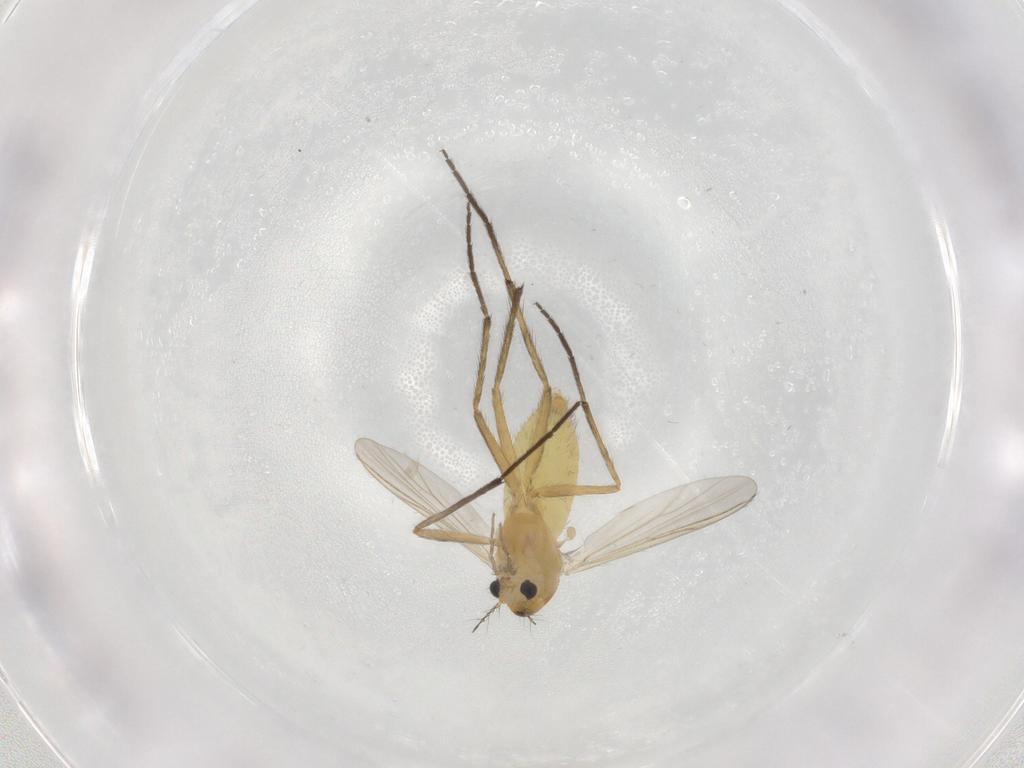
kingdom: Animalia
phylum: Arthropoda
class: Insecta
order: Diptera
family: Chironomidae
